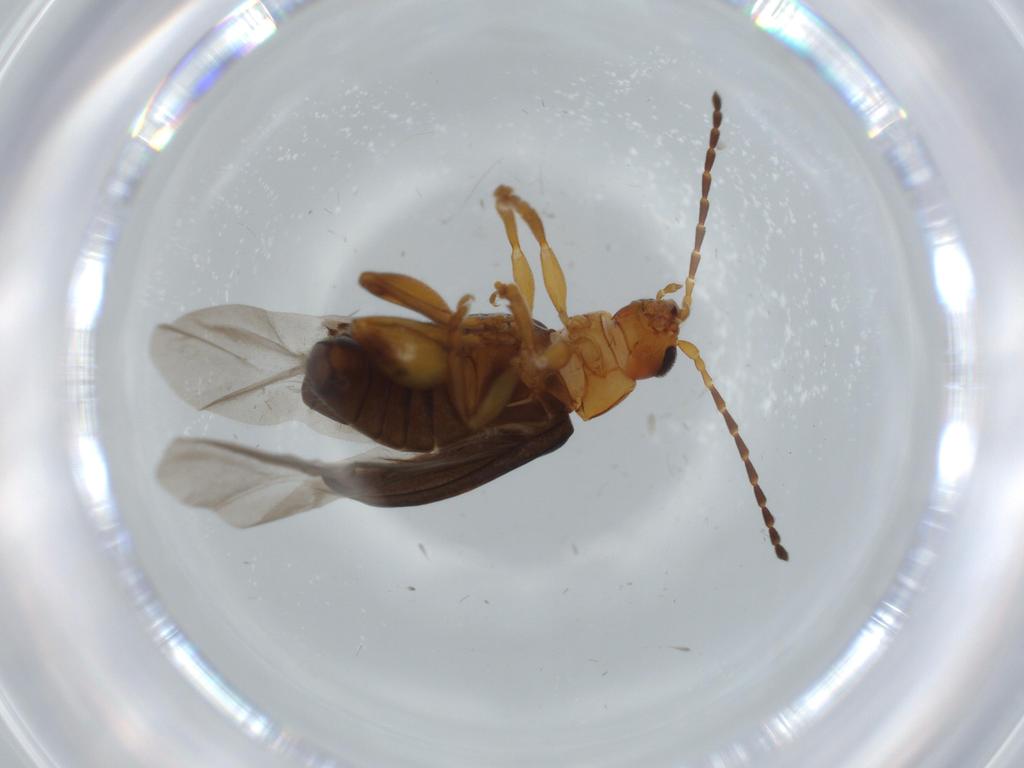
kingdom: Animalia
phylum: Arthropoda
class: Insecta
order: Coleoptera
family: Chrysomelidae
